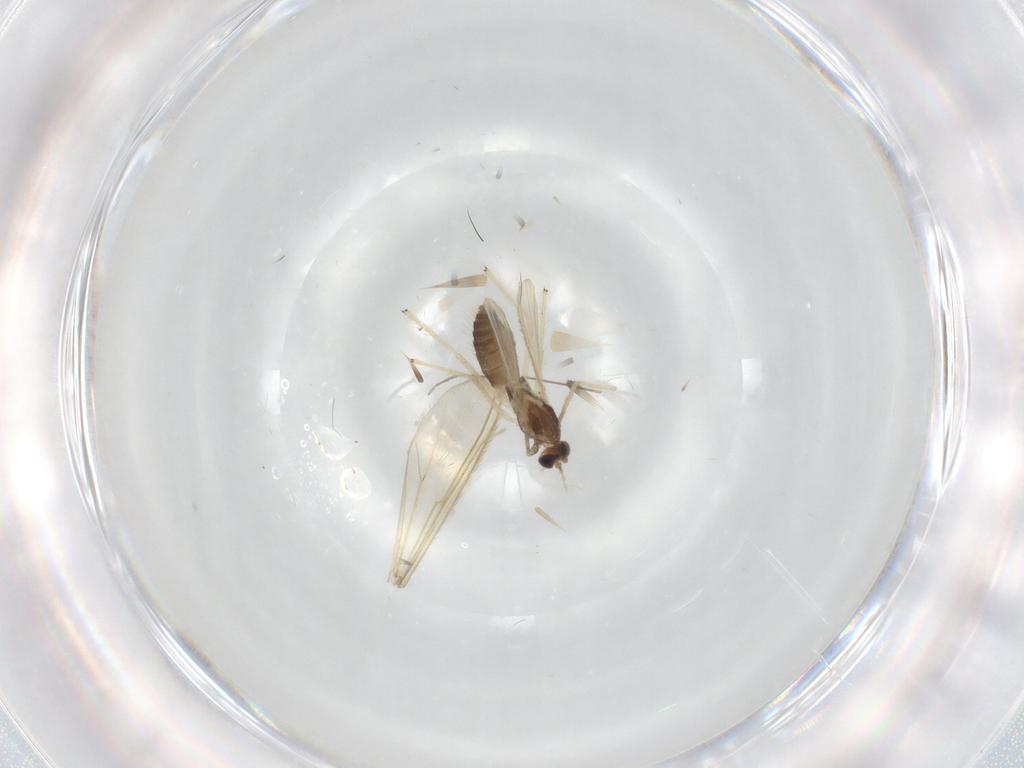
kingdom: Animalia
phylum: Arthropoda
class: Insecta
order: Diptera
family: Chironomidae
